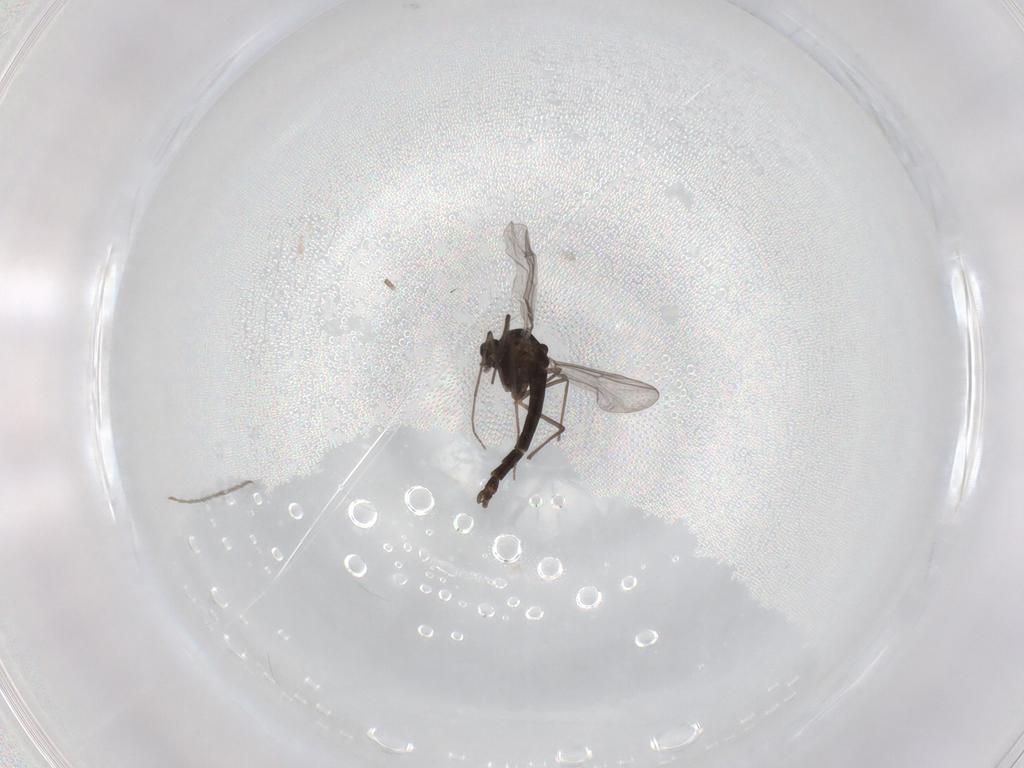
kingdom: Animalia
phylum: Arthropoda
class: Insecta
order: Diptera
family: Chironomidae
